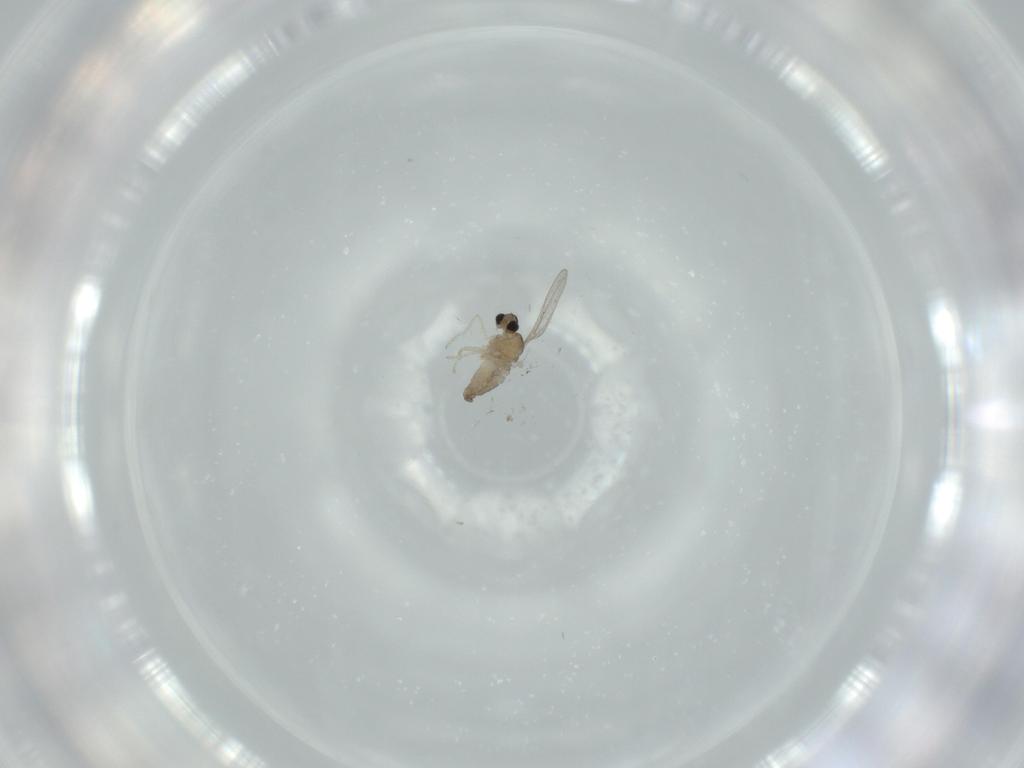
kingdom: Animalia
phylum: Arthropoda
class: Insecta
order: Diptera
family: Cecidomyiidae
